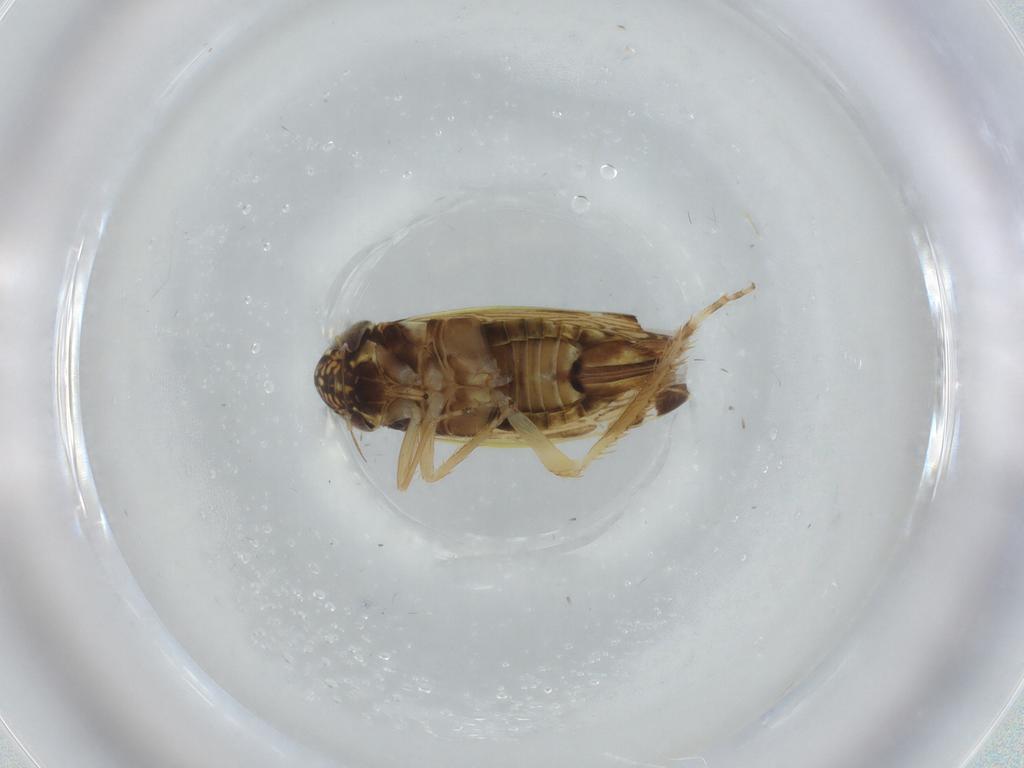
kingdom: Animalia
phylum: Arthropoda
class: Insecta
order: Hemiptera
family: Cicadellidae
